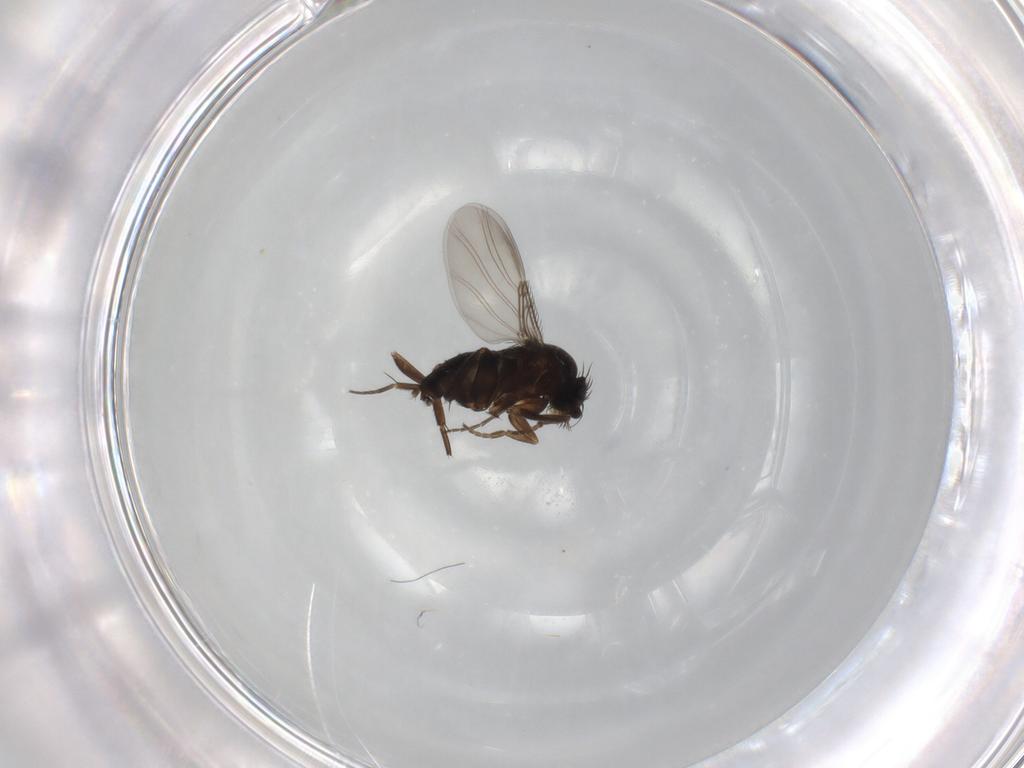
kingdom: Animalia
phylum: Arthropoda
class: Insecta
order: Diptera
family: Phoridae
